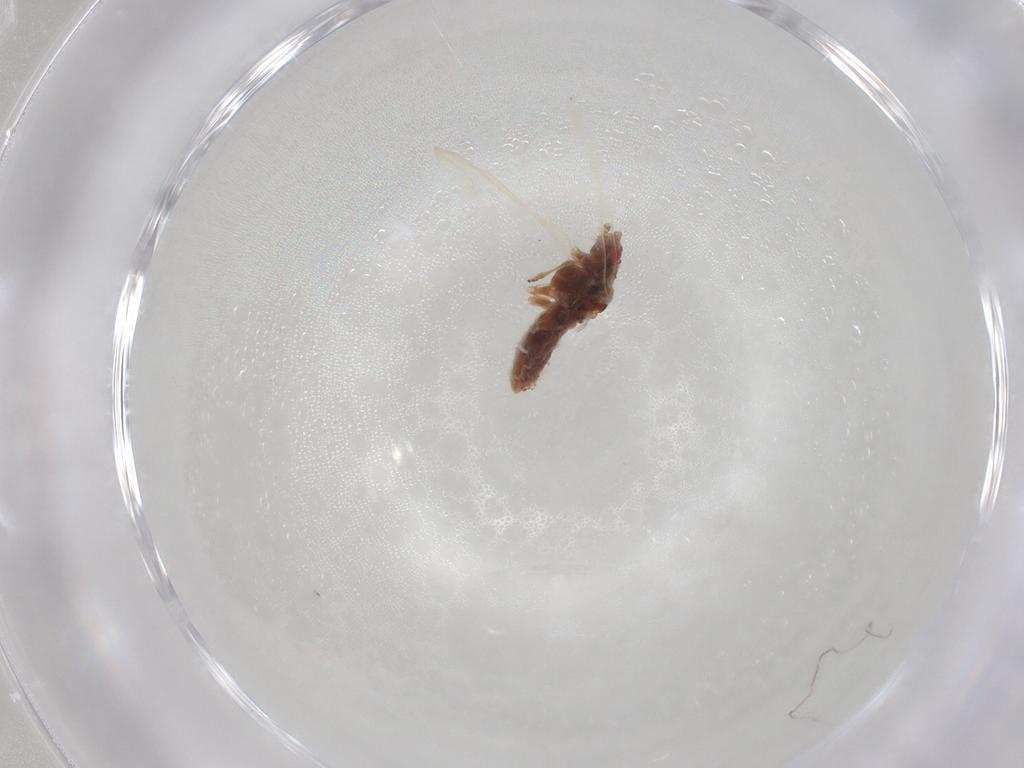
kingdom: Animalia
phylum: Arthropoda
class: Insecta
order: Hemiptera
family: Aphididae
